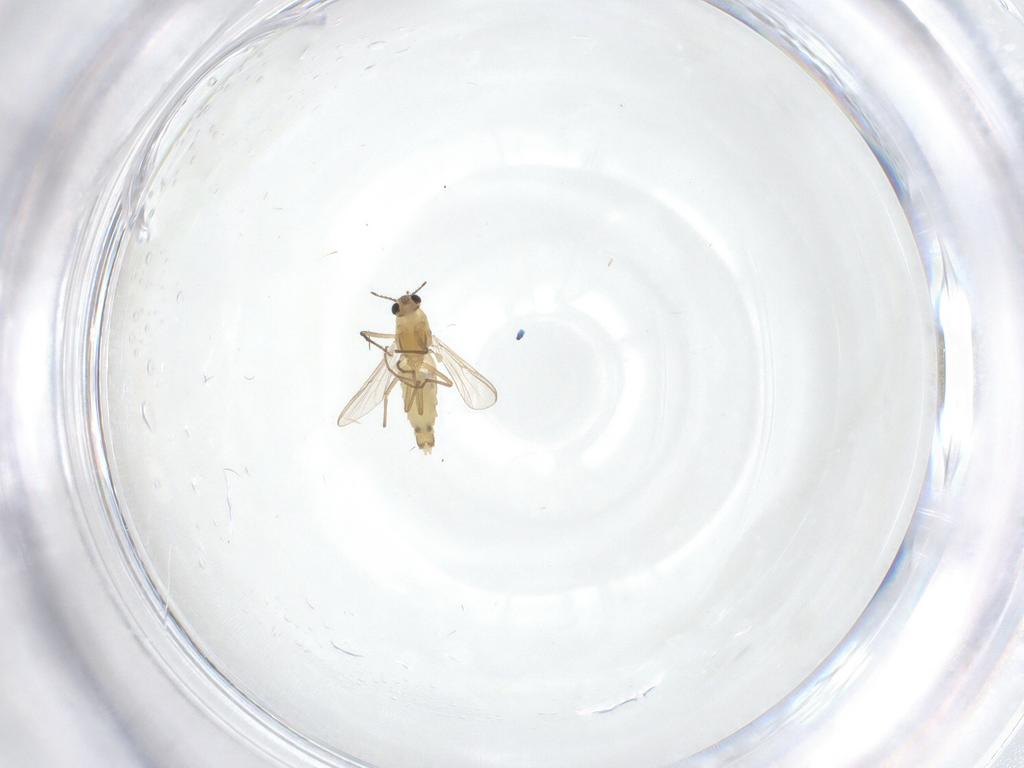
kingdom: Animalia
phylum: Arthropoda
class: Insecta
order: Diptera
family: Chironomidae
